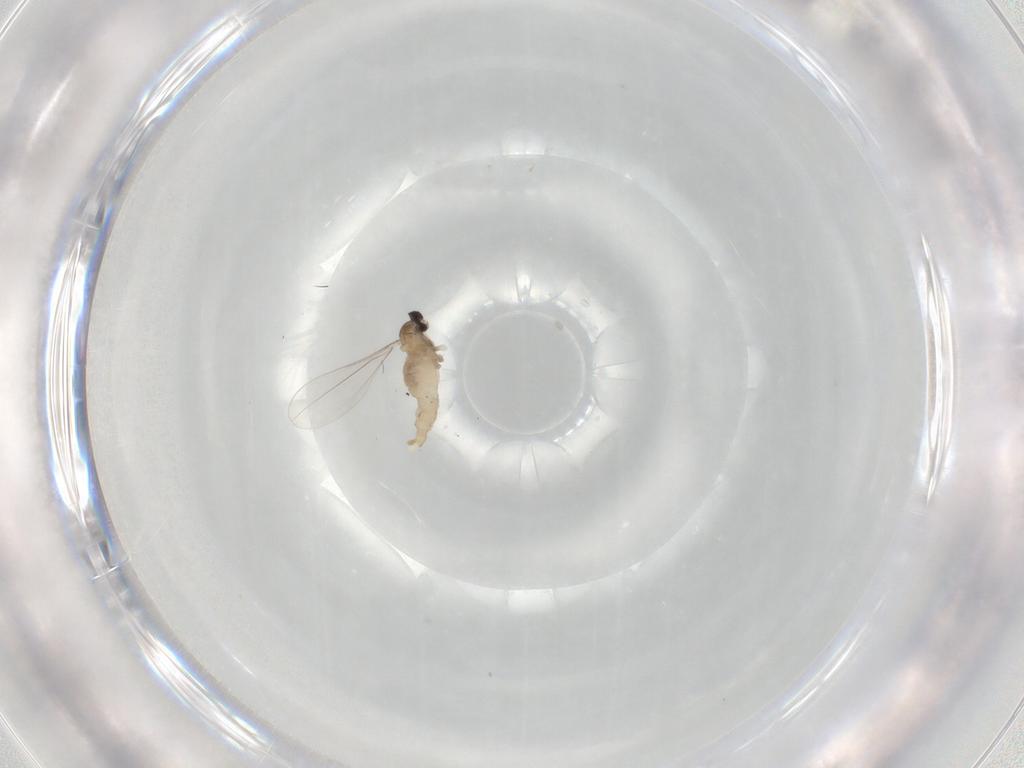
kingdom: Animalia
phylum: Arthropoda
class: Insecta
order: Diptera
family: Cecidomyiidae
